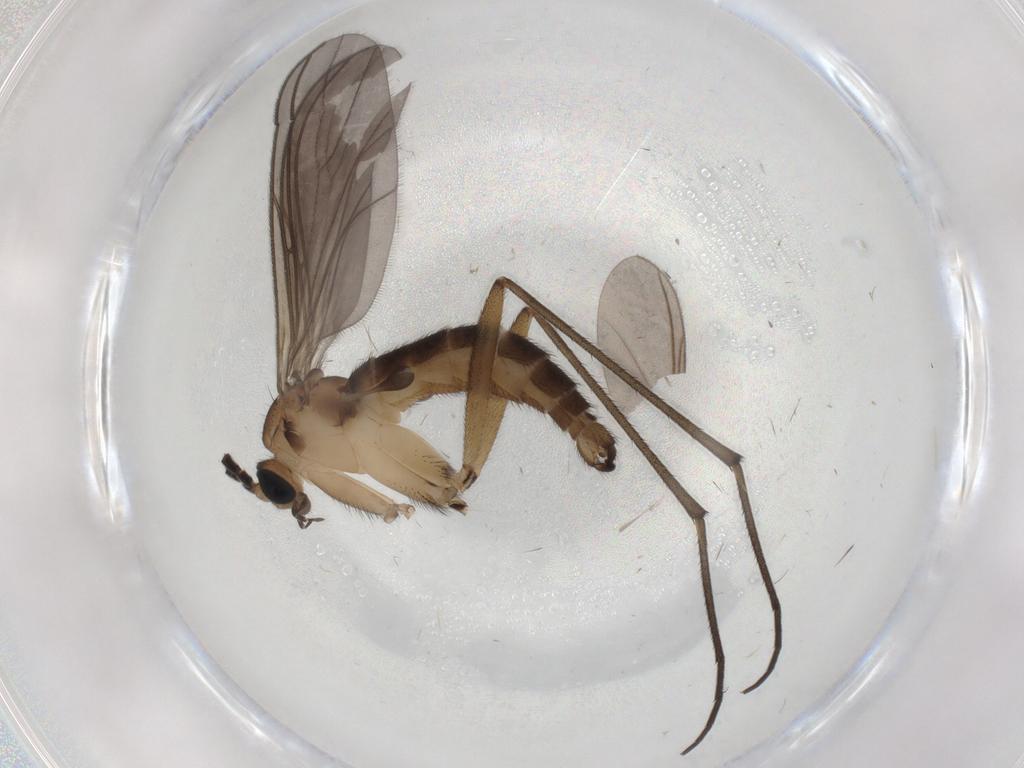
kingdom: Animalia
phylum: Arthropoda
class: Insecta
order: Diptera
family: Sciaridae
